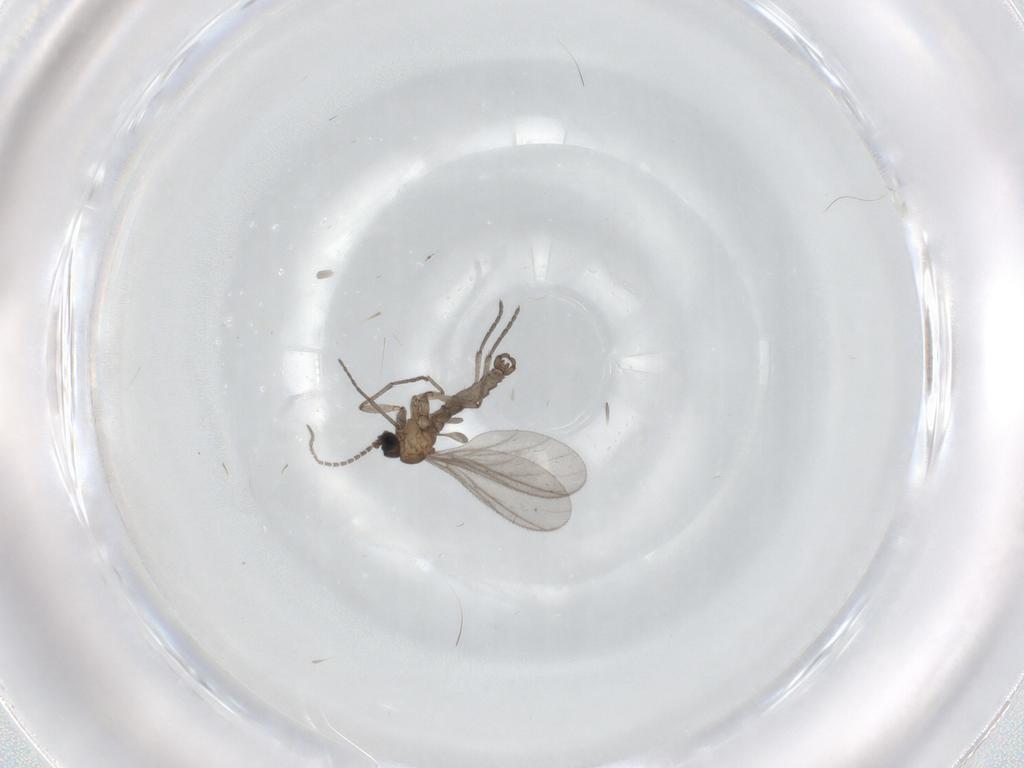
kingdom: Animalia
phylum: Arthropoda
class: Insecta
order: Diptera
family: Sciaridae
